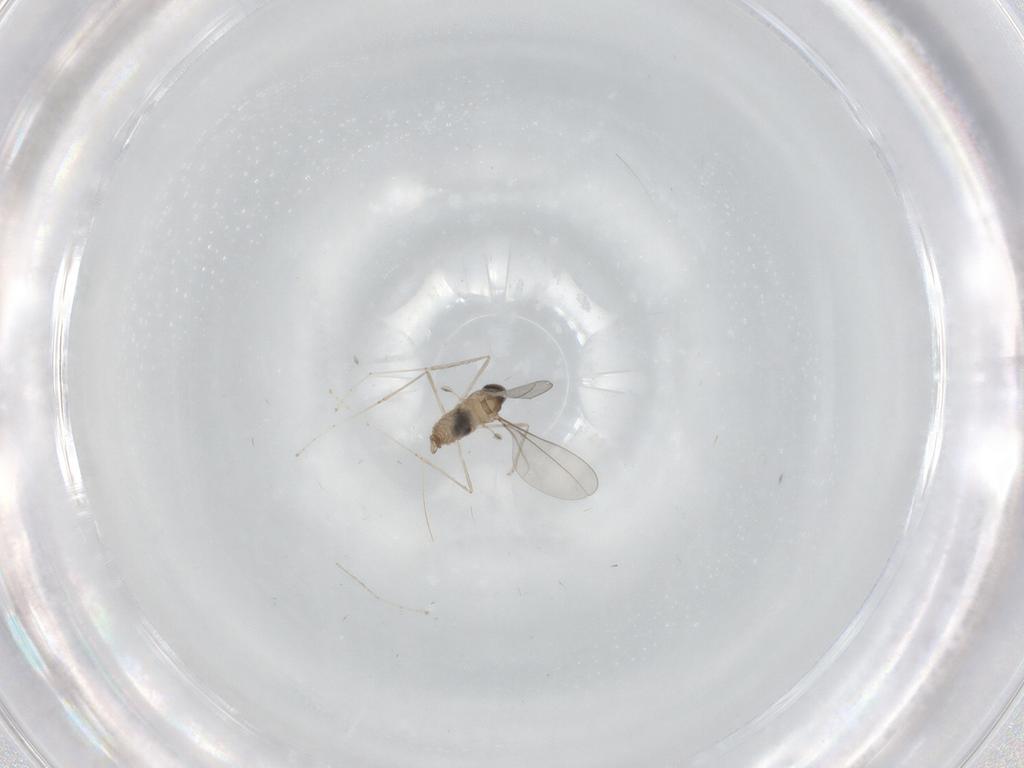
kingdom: Animalia
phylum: Arthropoda
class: Insecta
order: Diptera
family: Cecidomyiidae
